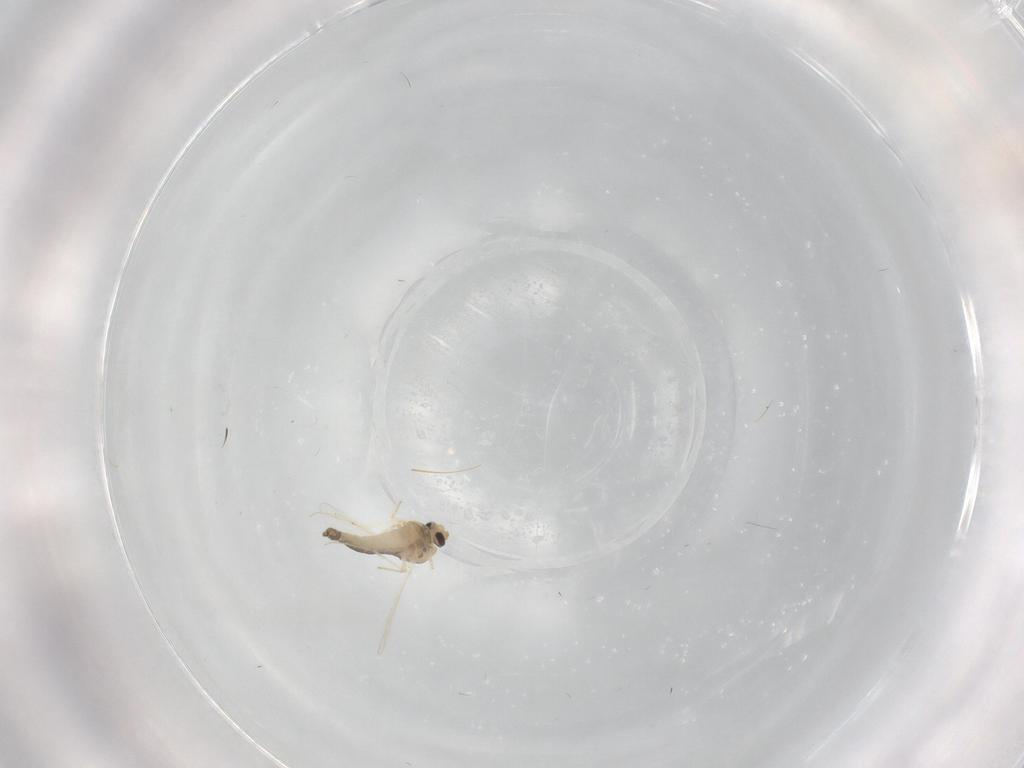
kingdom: Animalia
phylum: Arthropoda
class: Insecta
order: Diptera
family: Chironomidae
